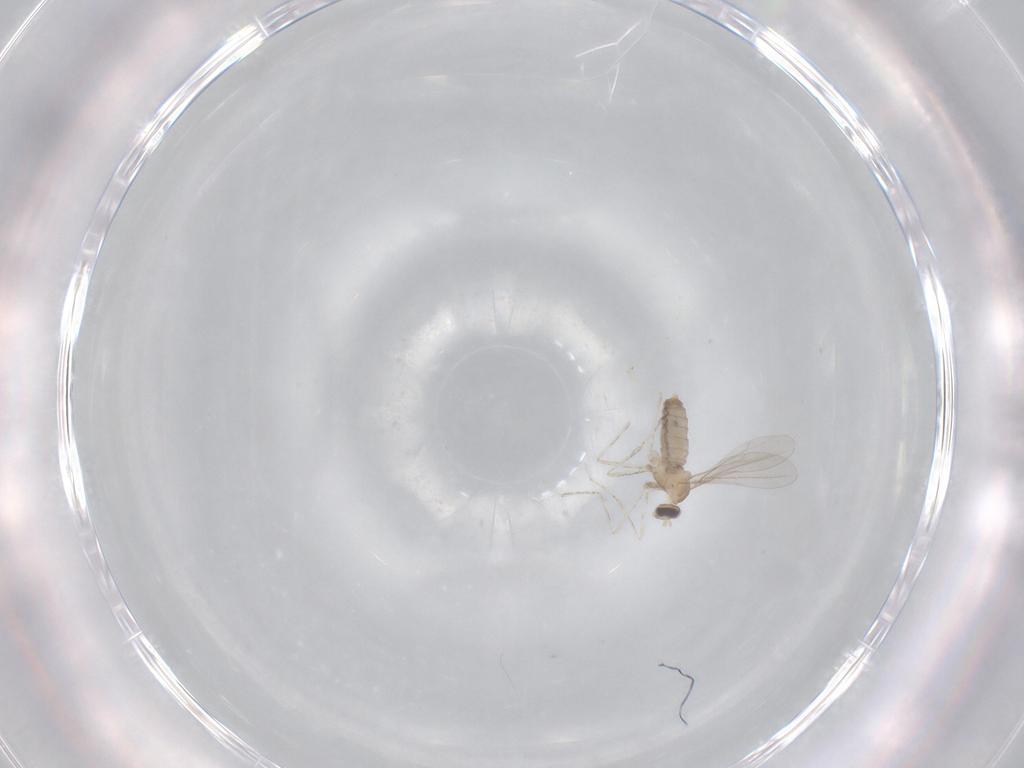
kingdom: Animalia
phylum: Arthropoda
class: Insecta
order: Diptera
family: Cecidomyiidae
